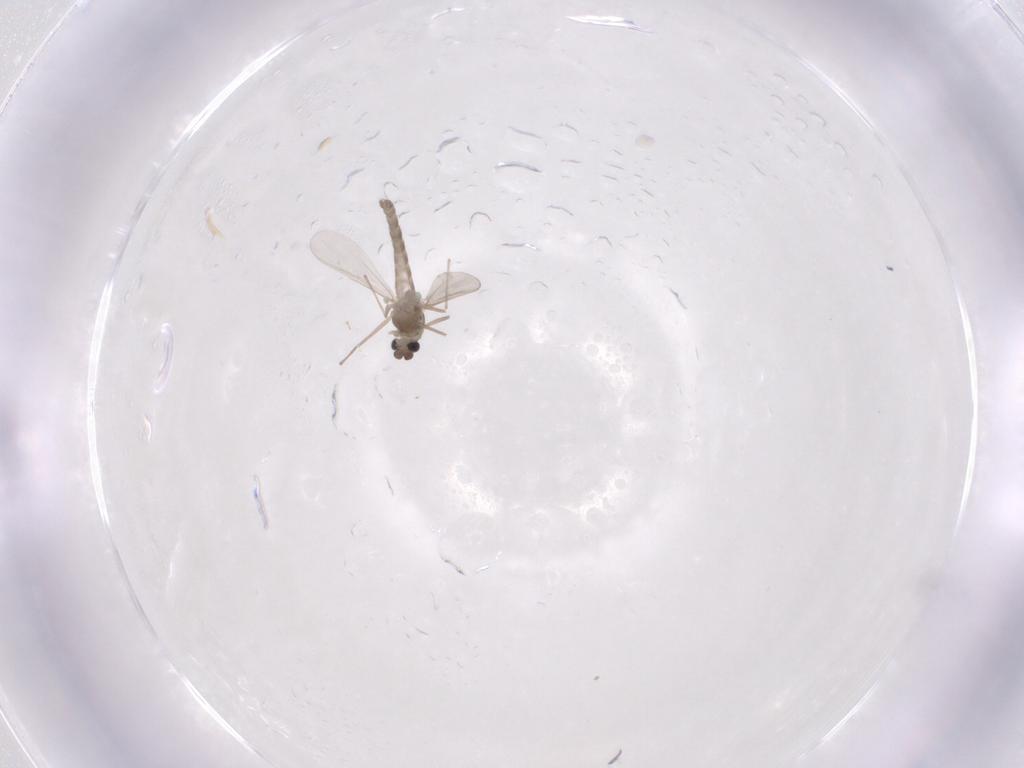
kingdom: Animalia
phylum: Arthropoda
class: Insecta
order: Diptera
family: Chironomidae
